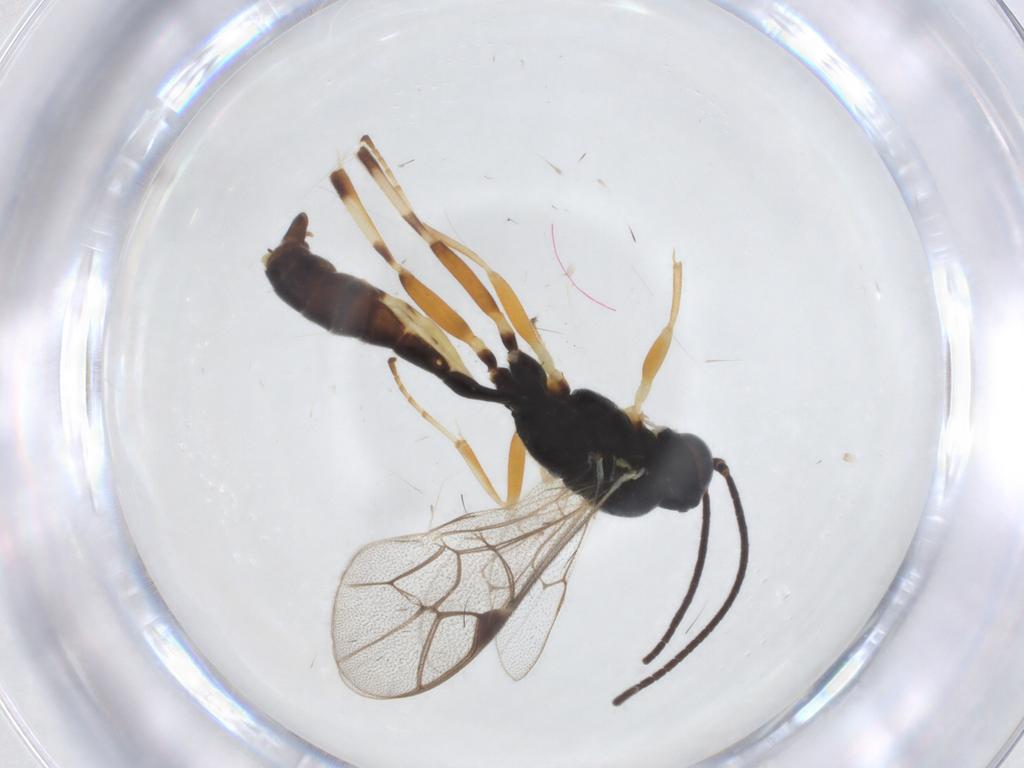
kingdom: Animalia
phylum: Arthropoda
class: Insecta
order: Hymenoptera
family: Ichneumonidae
